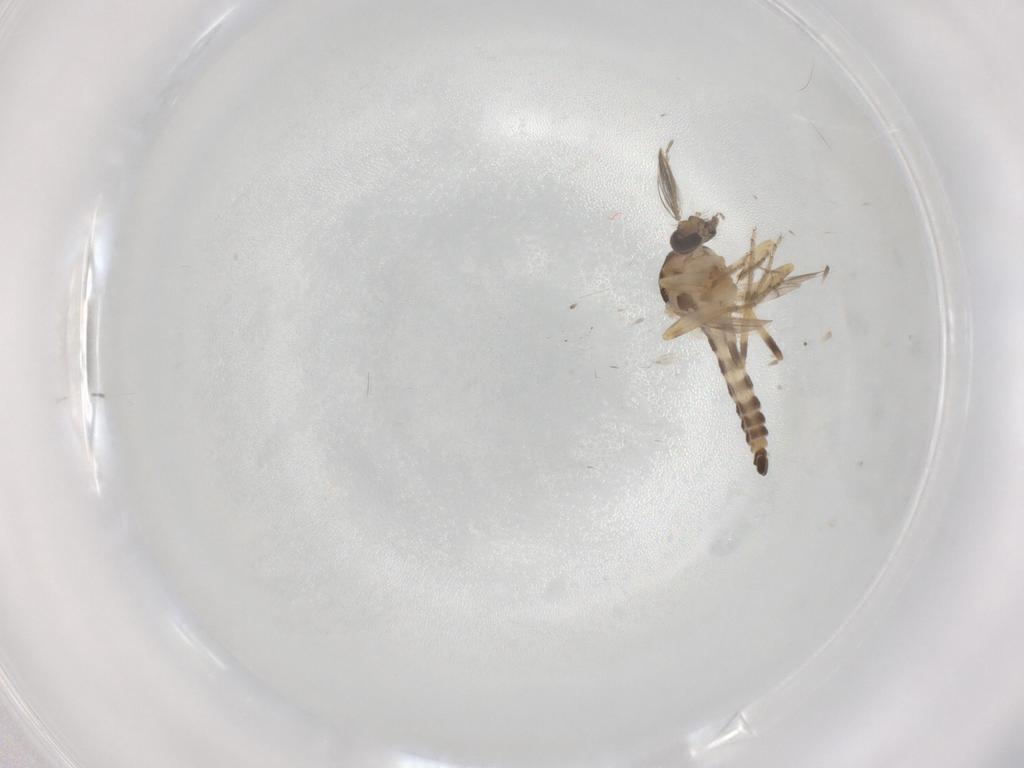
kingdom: Animalia
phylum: Arthropoda
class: Insecta
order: Diptera
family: Ceratopogonidae
